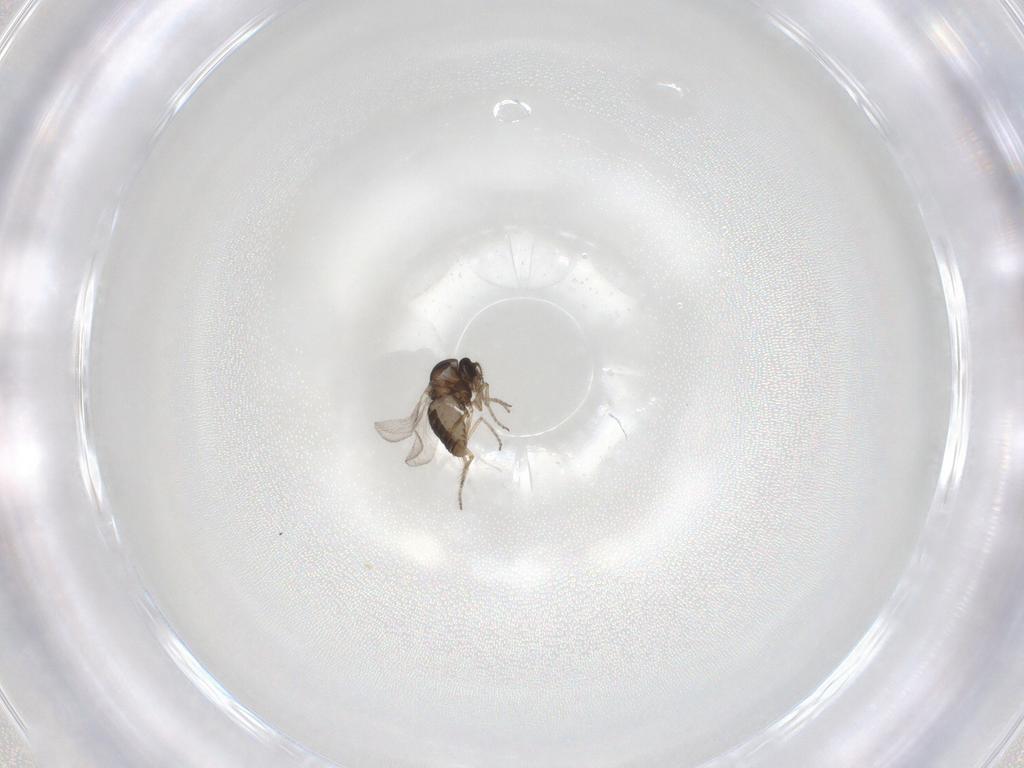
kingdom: Animalia
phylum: Arthropoda
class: Insecta
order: Diptera
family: Ceratopogonidae
